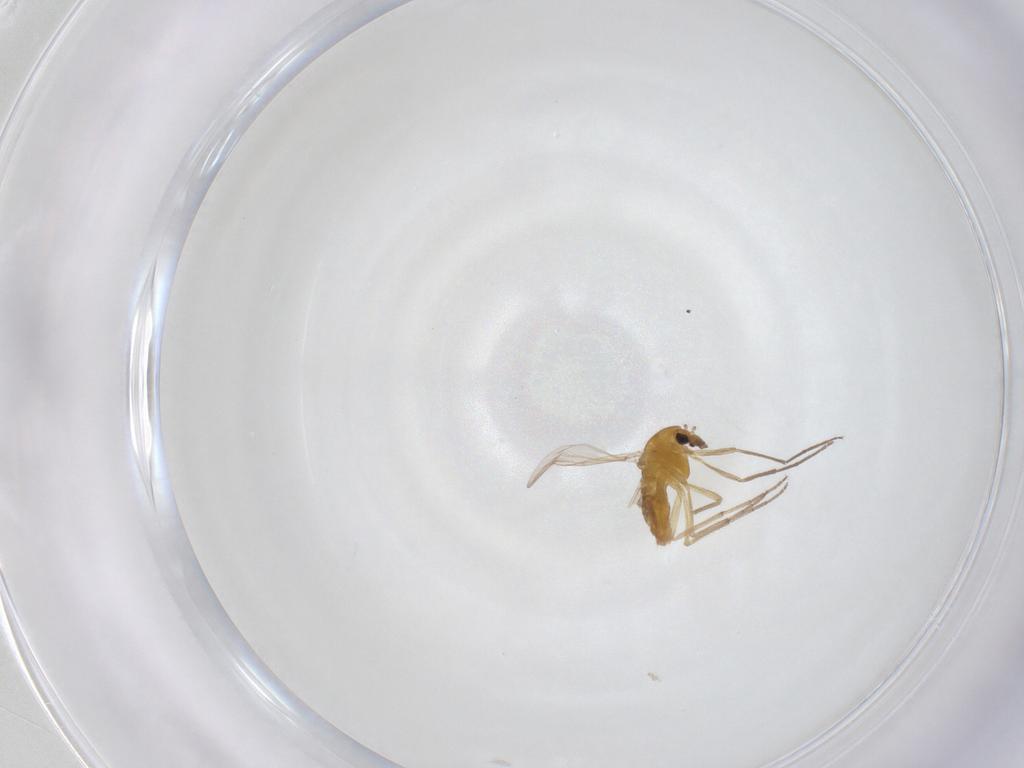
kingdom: Animalia
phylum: Arthropoda
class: Insecta
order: Diptera
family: Chironomidae
